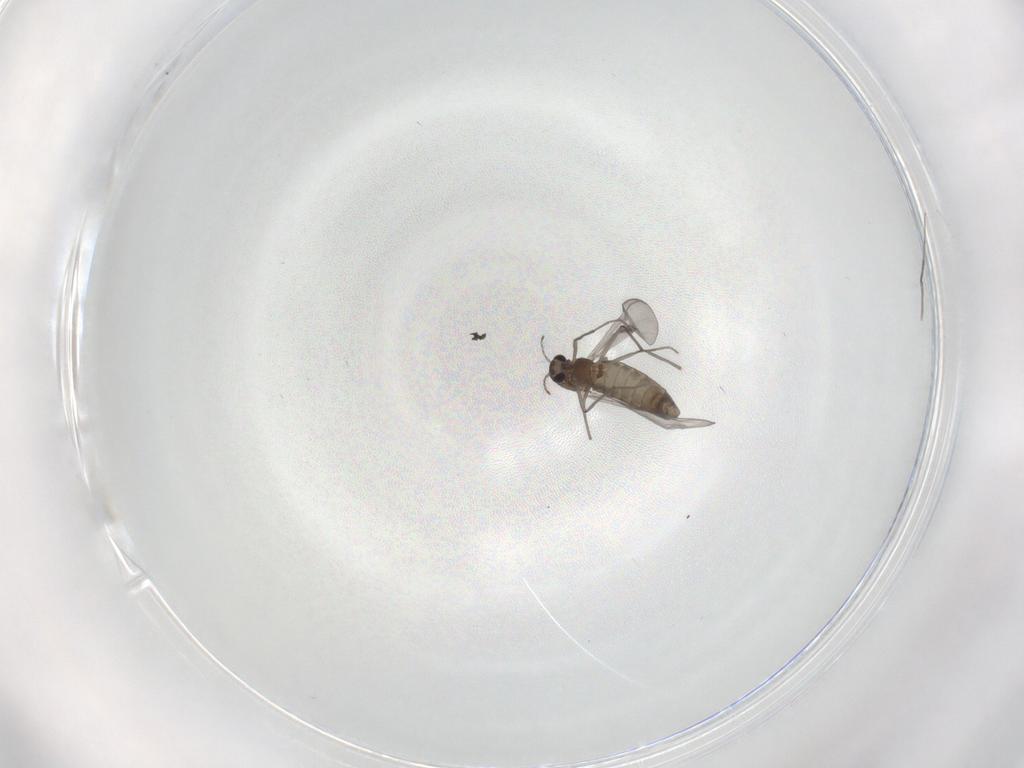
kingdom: Animalia
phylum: Arthropoda
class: Insecta
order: Diptera
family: Chironomidae
